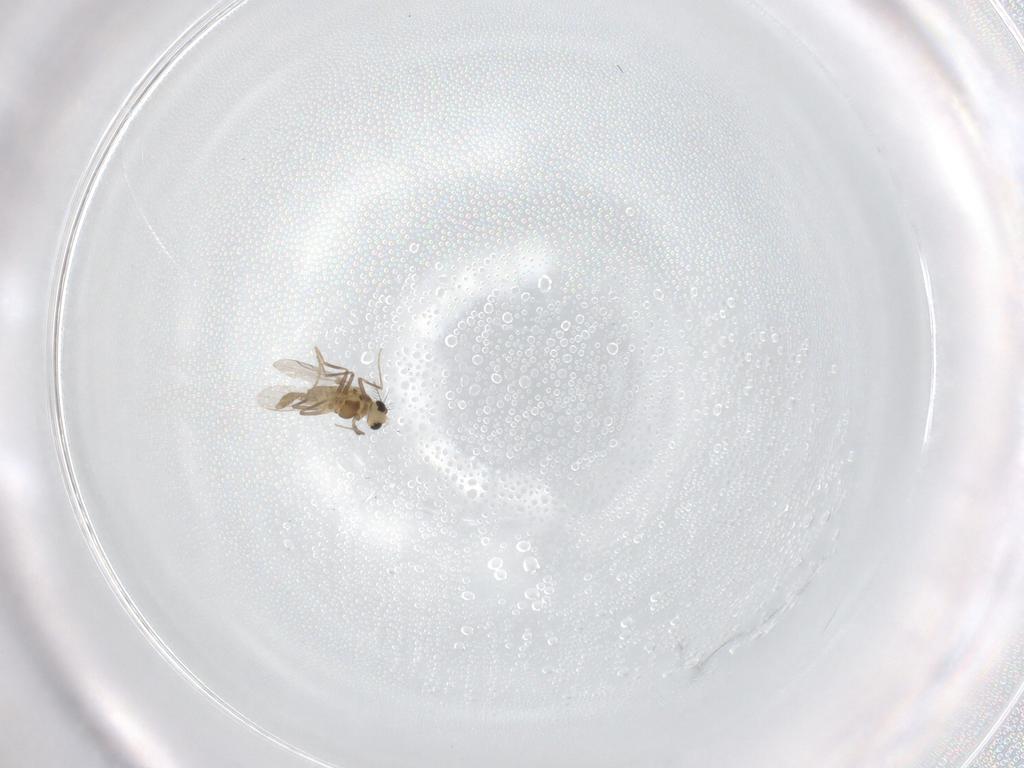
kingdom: Animalia
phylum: Arthropoda
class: Insecta
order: Diptera
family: Chironomidae
